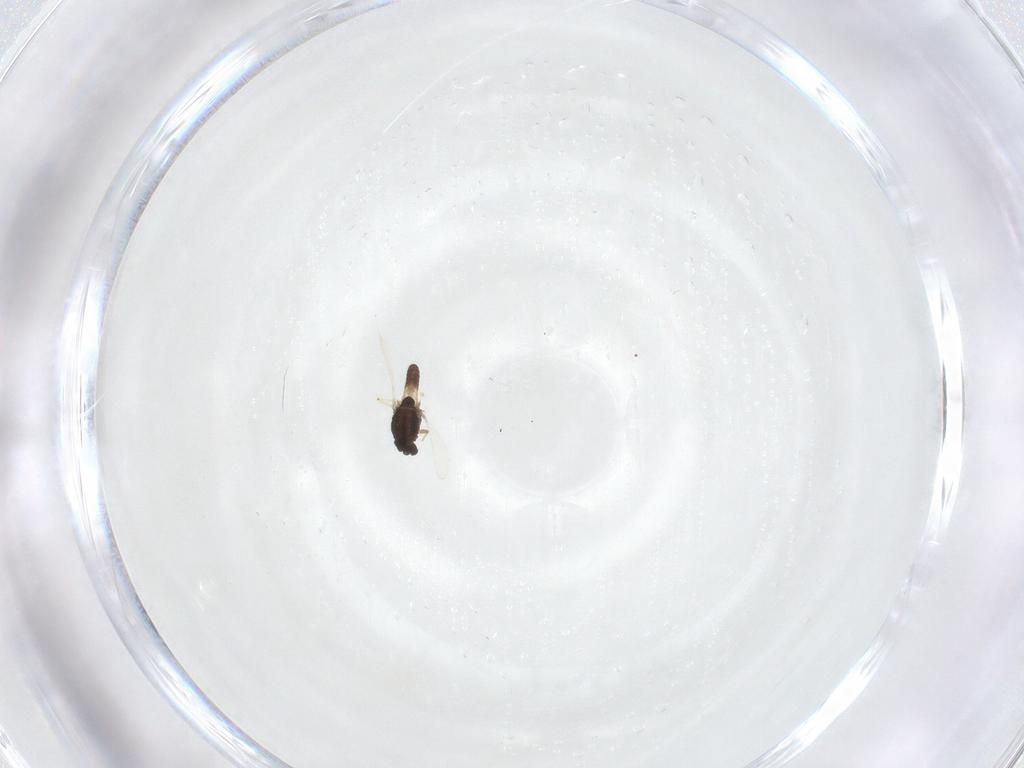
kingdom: Animalia
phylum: Arthropoda
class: Insecta
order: Diptera
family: Chironomidae
